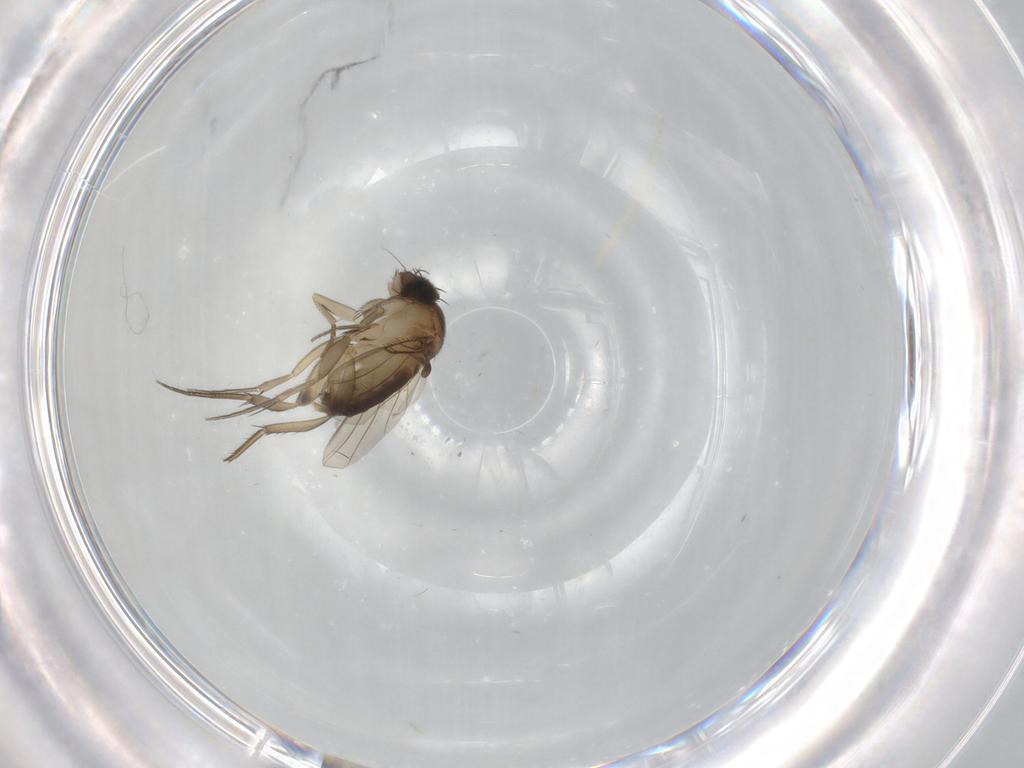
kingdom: Animalia
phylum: Arthropoda
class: Insecta
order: Diptera
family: Phoridae
